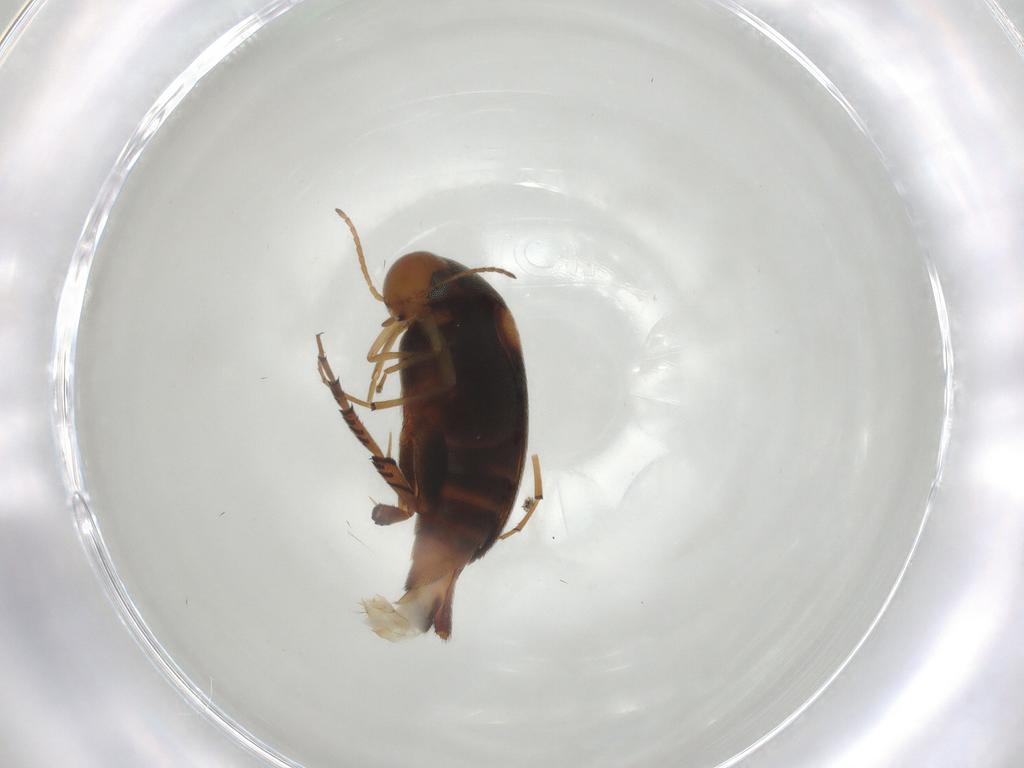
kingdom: Animalia
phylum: Arthropoda
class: Insecta
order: Coleoptera
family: Mordellidae
